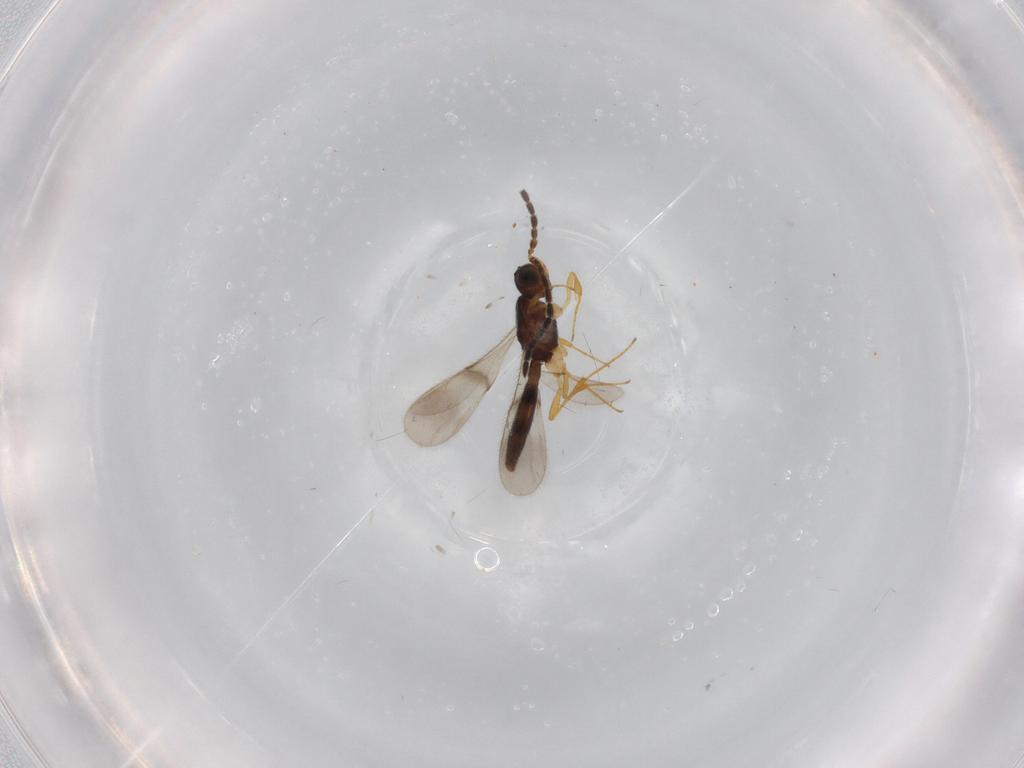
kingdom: Animalia
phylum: Arthropoda
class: Insecta
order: Hymenoptera
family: Scelionidae
